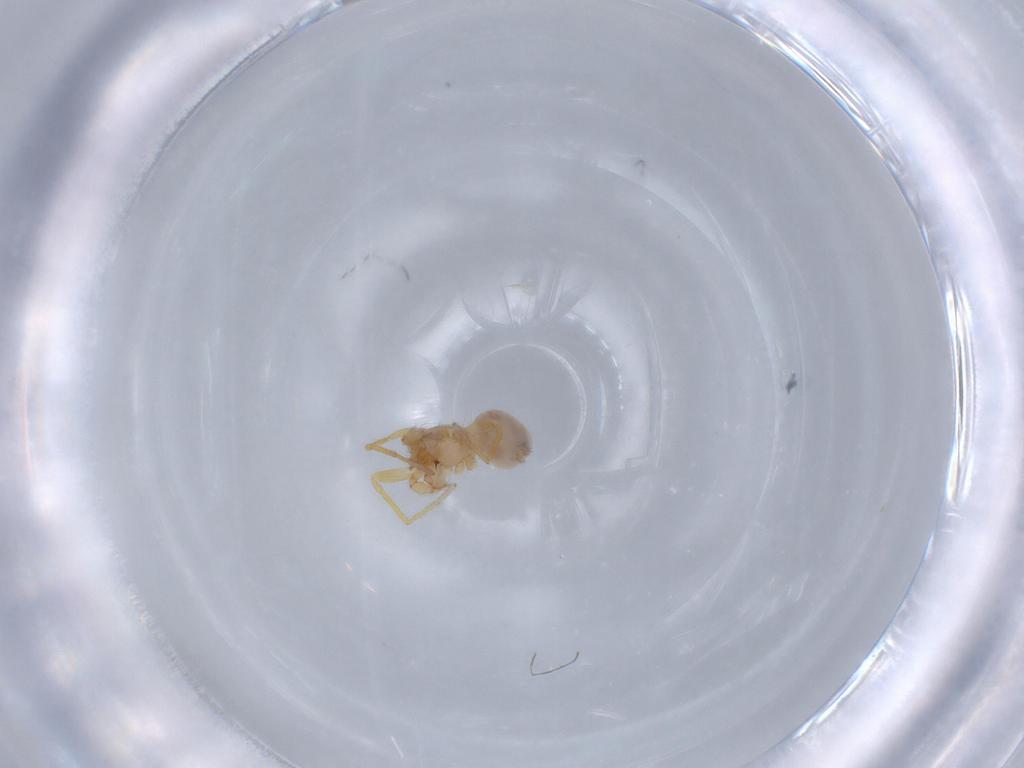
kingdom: Animalia
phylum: Arthropoda
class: Arachnida
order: Araneae
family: Oonopidae
